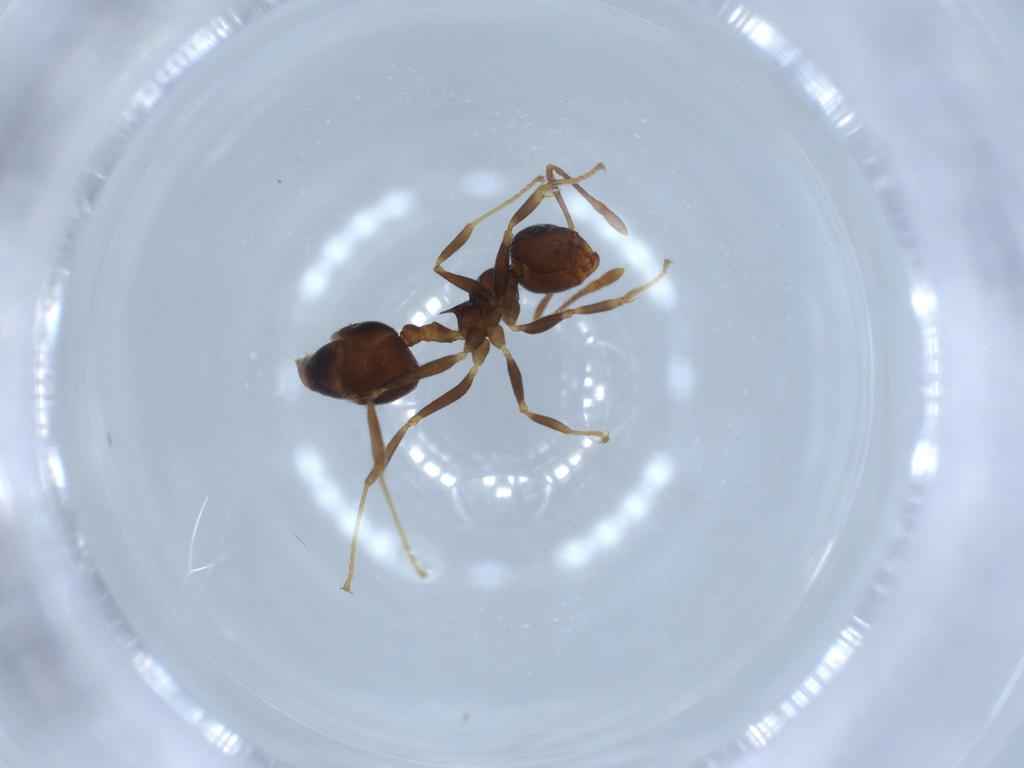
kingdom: Animalia
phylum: Arthropoda
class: Insecta
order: Hymenoptera
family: Formicidae
